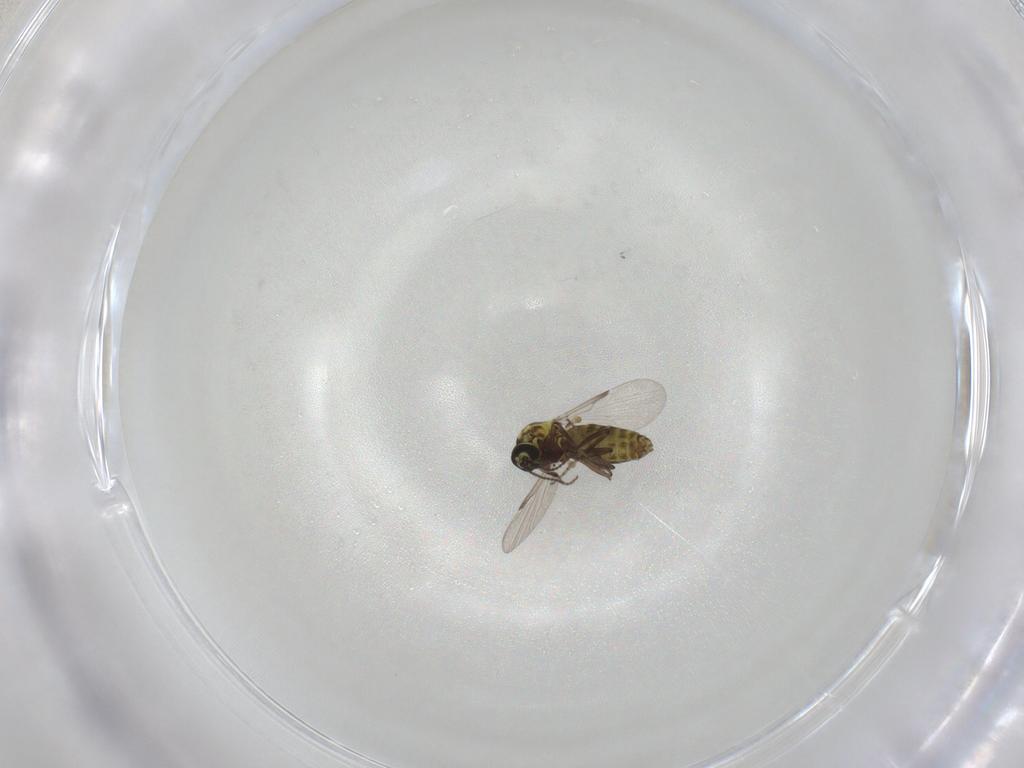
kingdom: Animalia
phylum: Arthropoda
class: Insecta
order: Diptera
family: Ceratopogonidae
